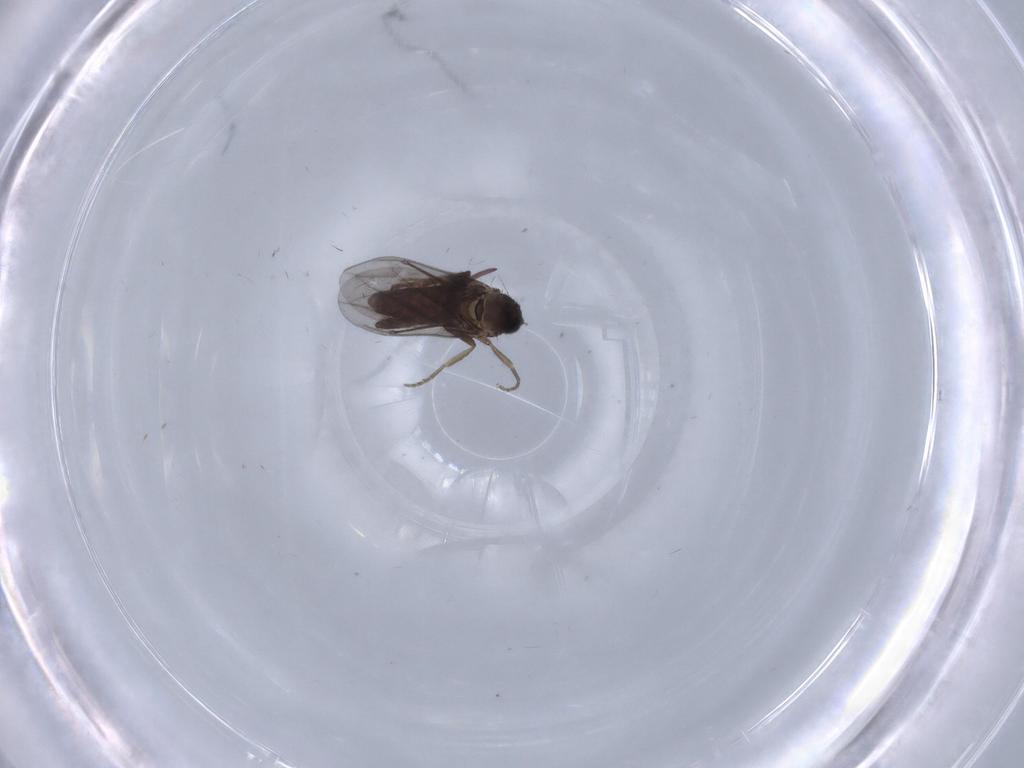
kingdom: Animalia
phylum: Arthropoda
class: Insecta
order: Diptera
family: Phoridae
